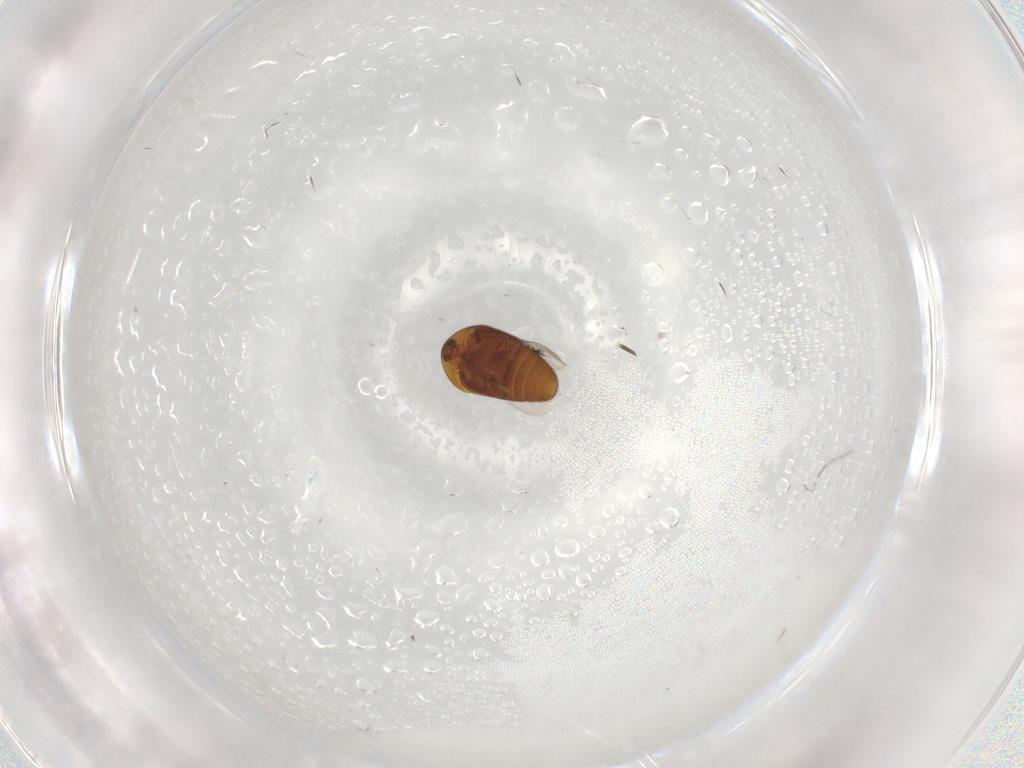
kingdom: Animalia
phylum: Arthropoda
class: Insecta
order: Coleoptera
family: Corylophidae
